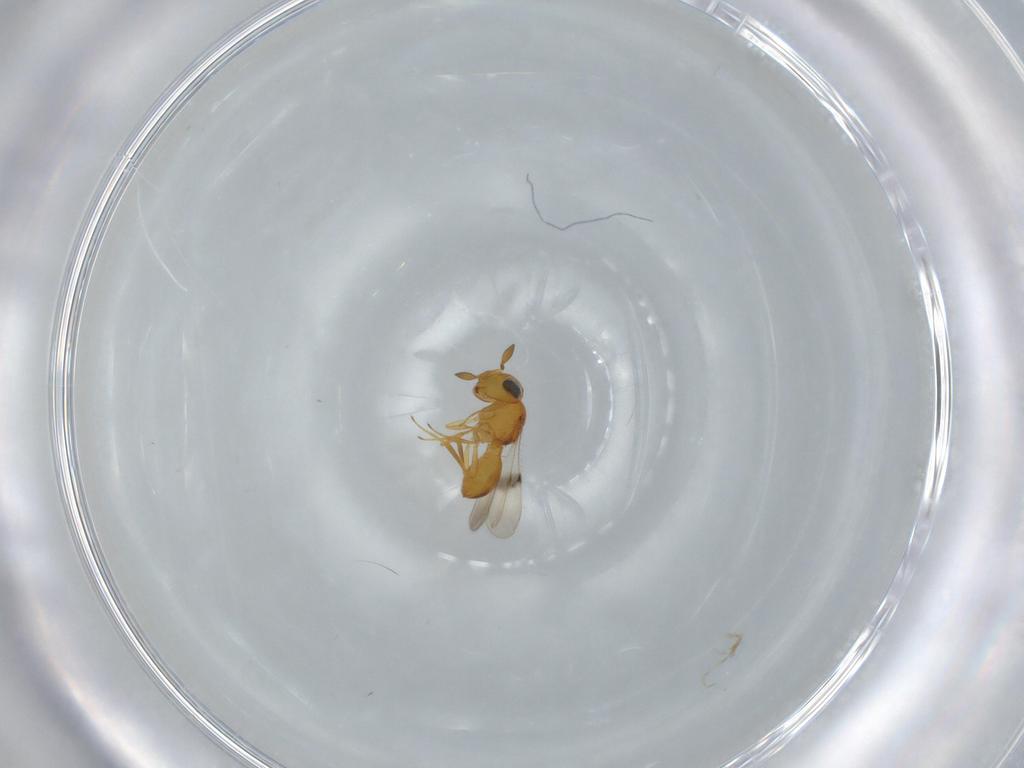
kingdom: Animalia
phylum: Arthropoda
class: Insecta
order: Hymenoptera
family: Scelionidae
